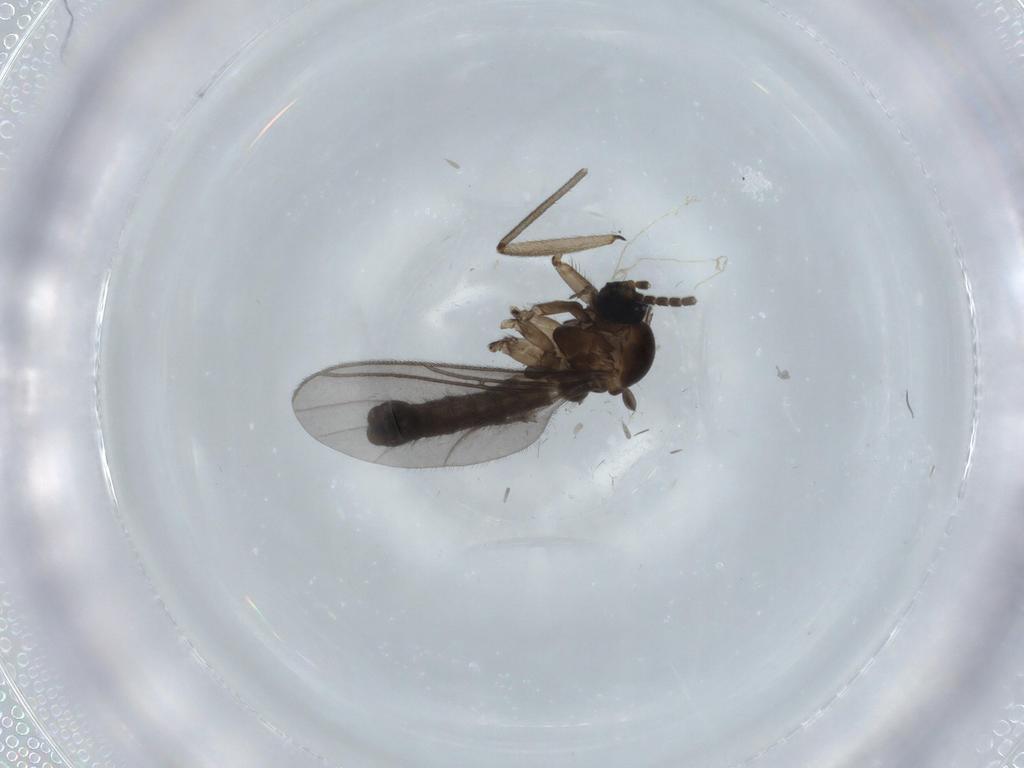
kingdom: Animalia
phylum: Arthropoda
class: Insecta
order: Diptera
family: Sciaridae
